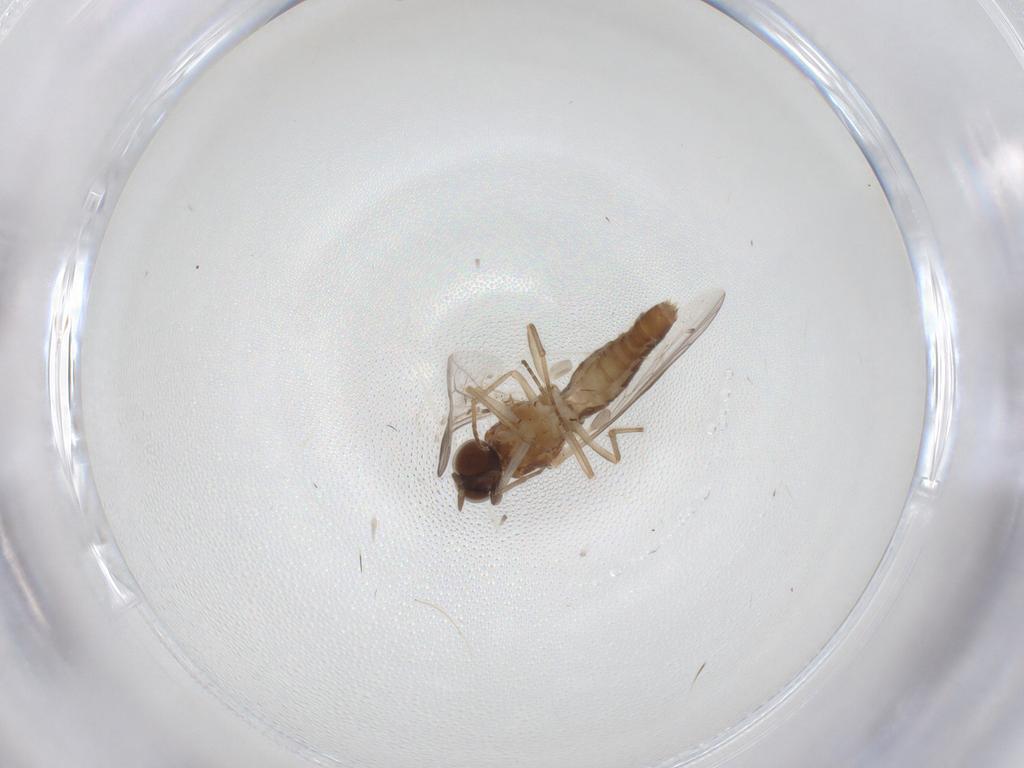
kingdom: Animalia
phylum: Arthropoda
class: Insecta
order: Diptera
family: Scenopinidae
